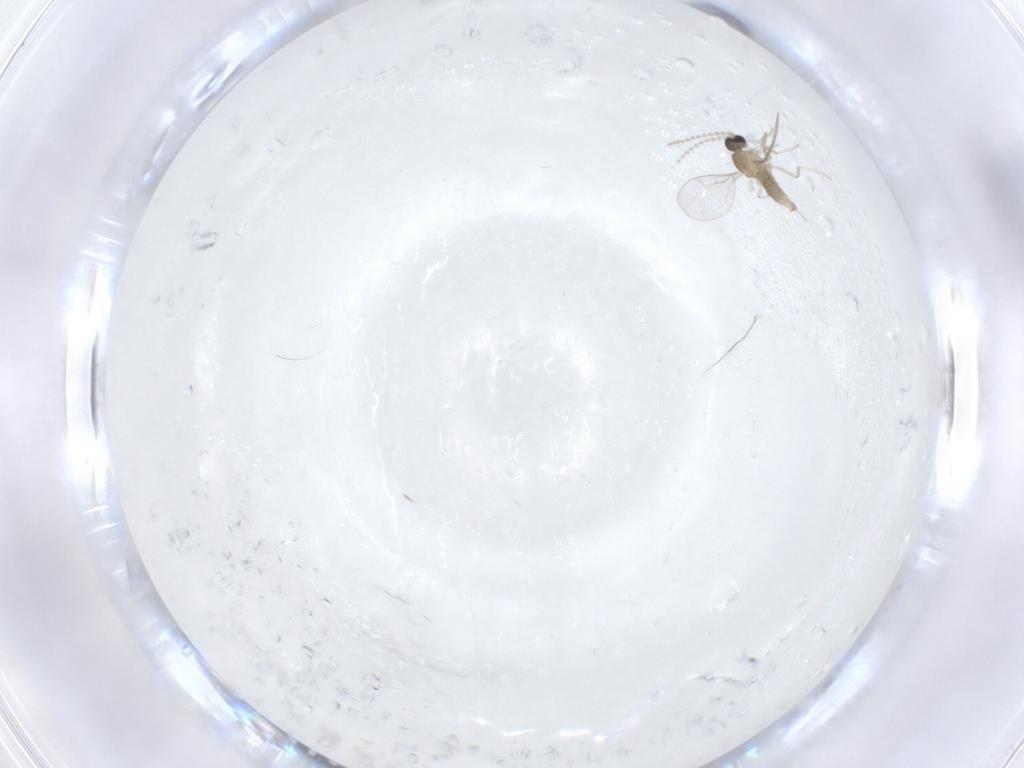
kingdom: Animalia
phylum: Arthropoda
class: Insecta
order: Diptera
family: Cecidomyiidae
